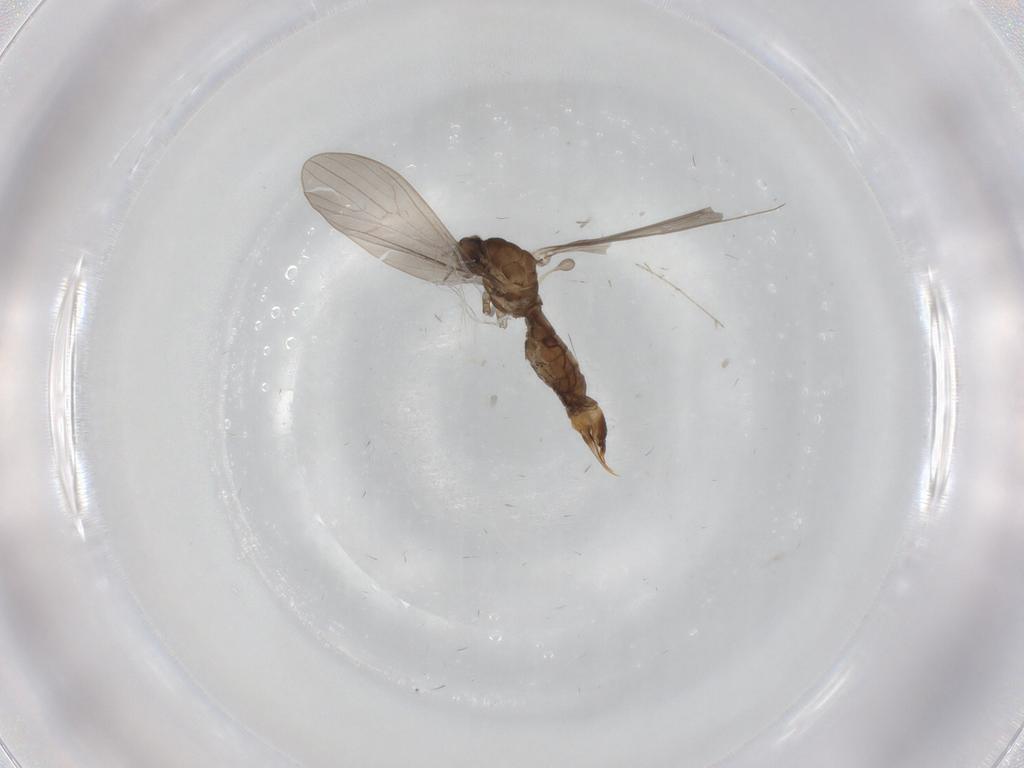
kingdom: Animalia
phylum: Arthropoda
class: Insecta
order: Diptera
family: Limoniidae
